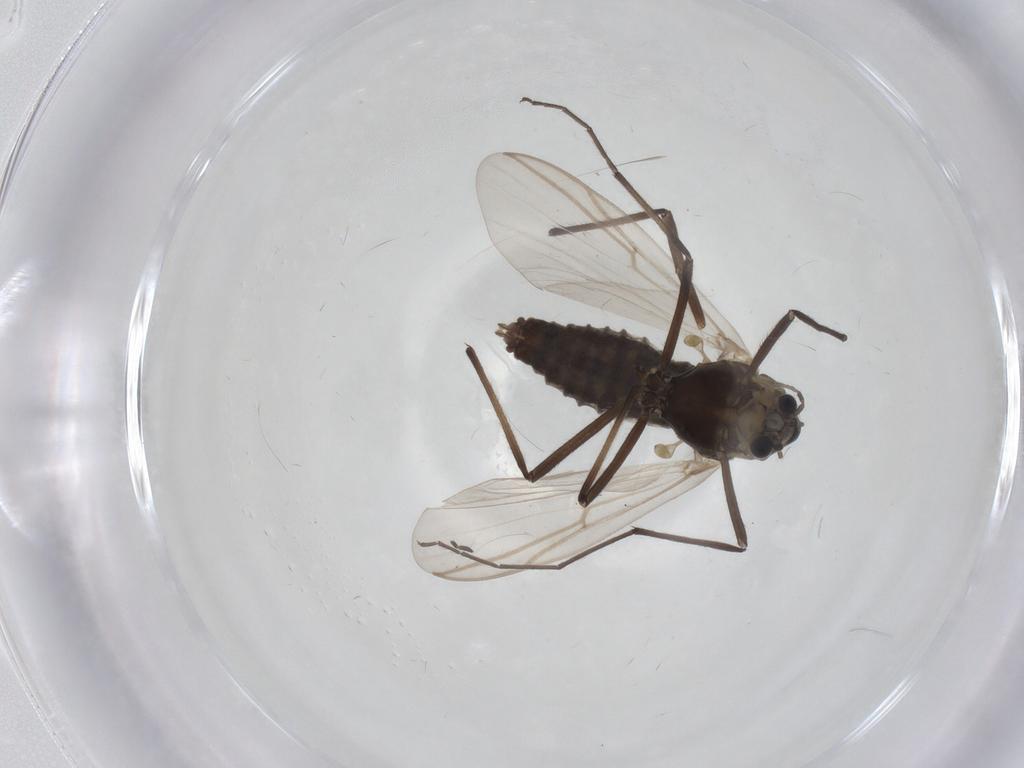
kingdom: Animalia
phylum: Arthropoda
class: Insecta
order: Diptera
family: Chironomidae
